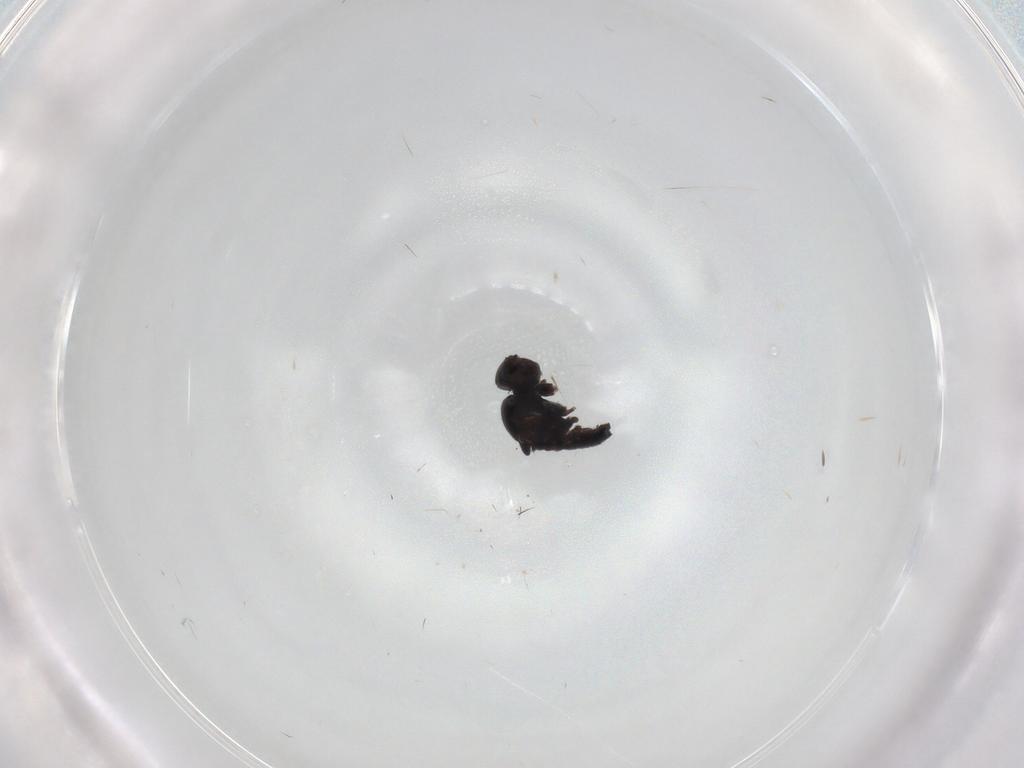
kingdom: Animalia
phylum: Arthropoda
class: Insecta
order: Diptera
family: Chloropidae
